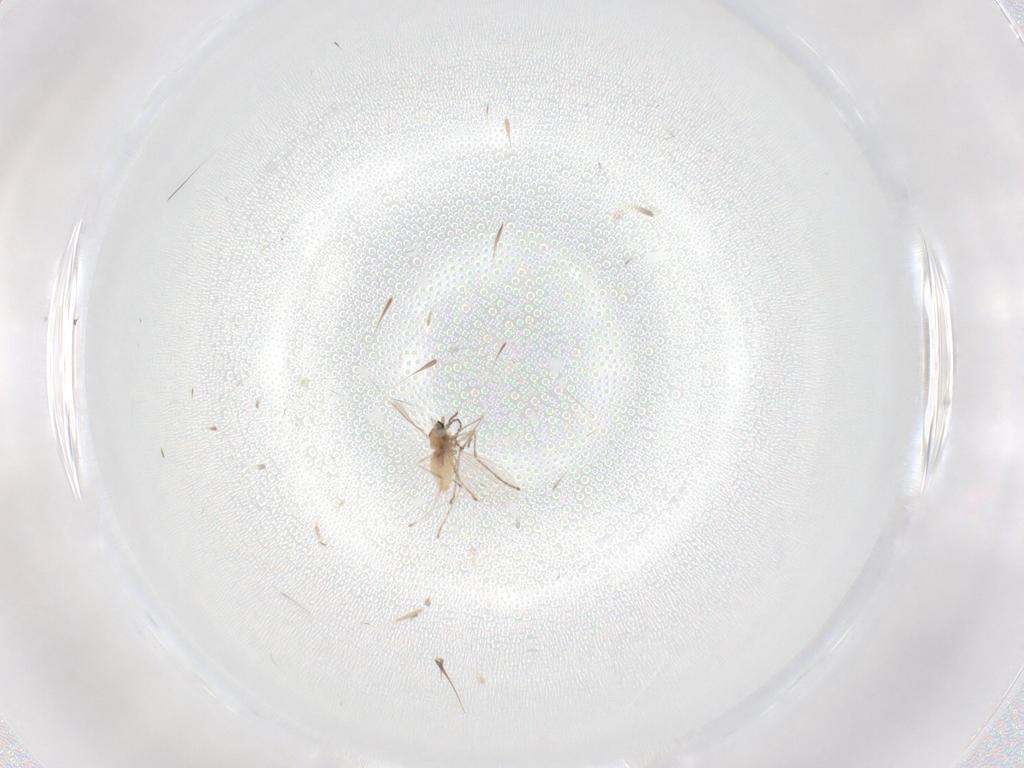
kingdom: Animalia
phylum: Arthropoda
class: Insecta
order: Diptera
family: Cecidomyiidae
